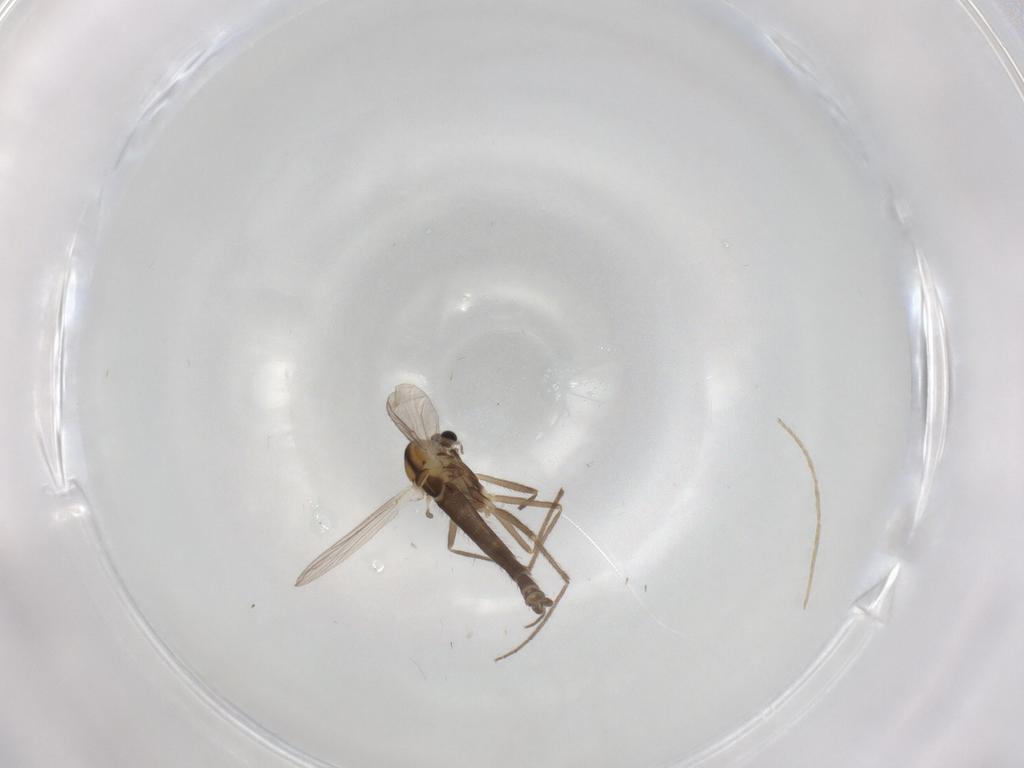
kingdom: Animalia
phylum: Arthropoda
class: Insecta
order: Diptera
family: Chironomidae
